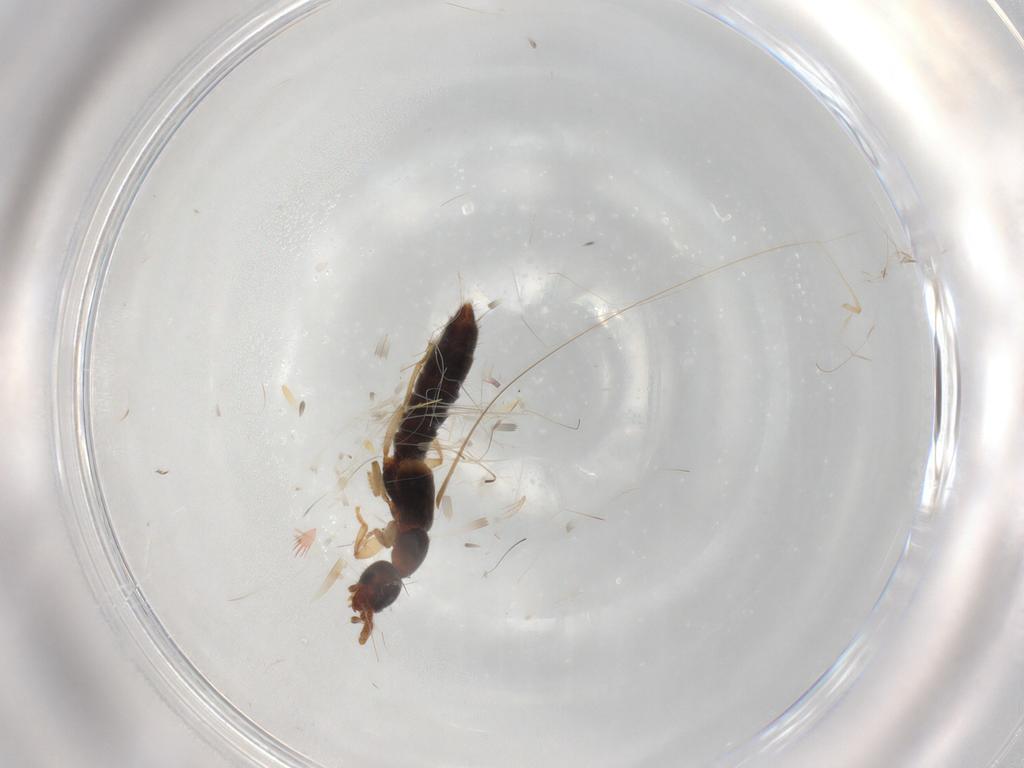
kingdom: Animalia
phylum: Arthropoda
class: Insecta
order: Coleoptera
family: Staphylinidae
